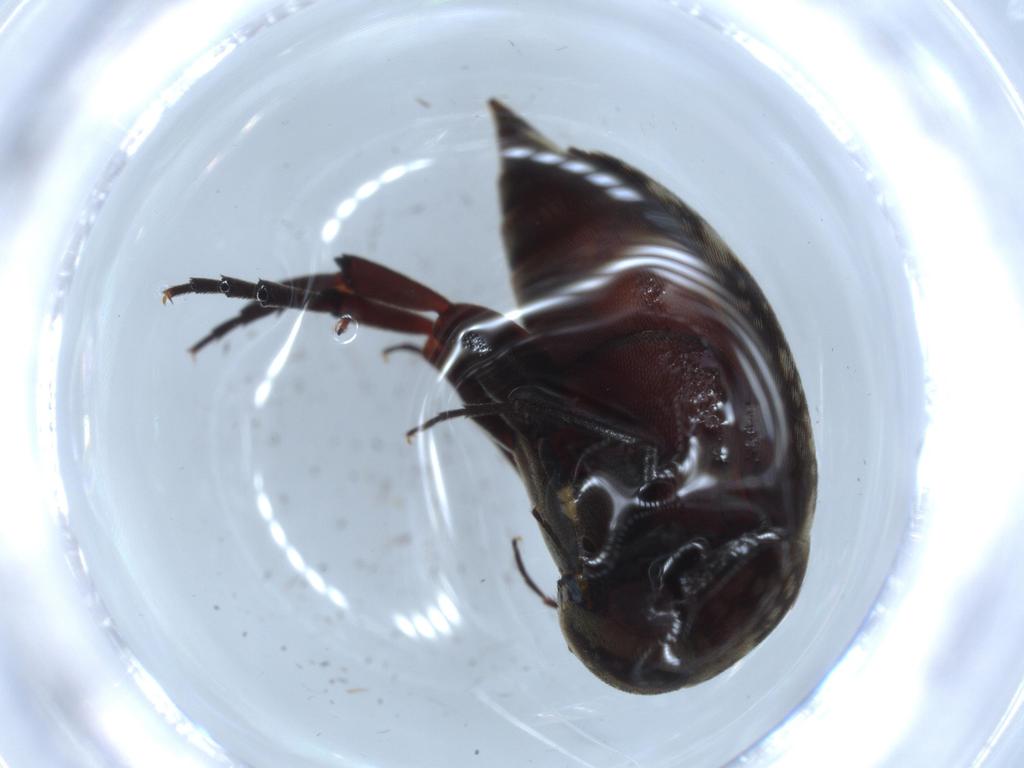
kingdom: Animalia
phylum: Arthropoda
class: Insecta
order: Coleoptera
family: Curculionidae
